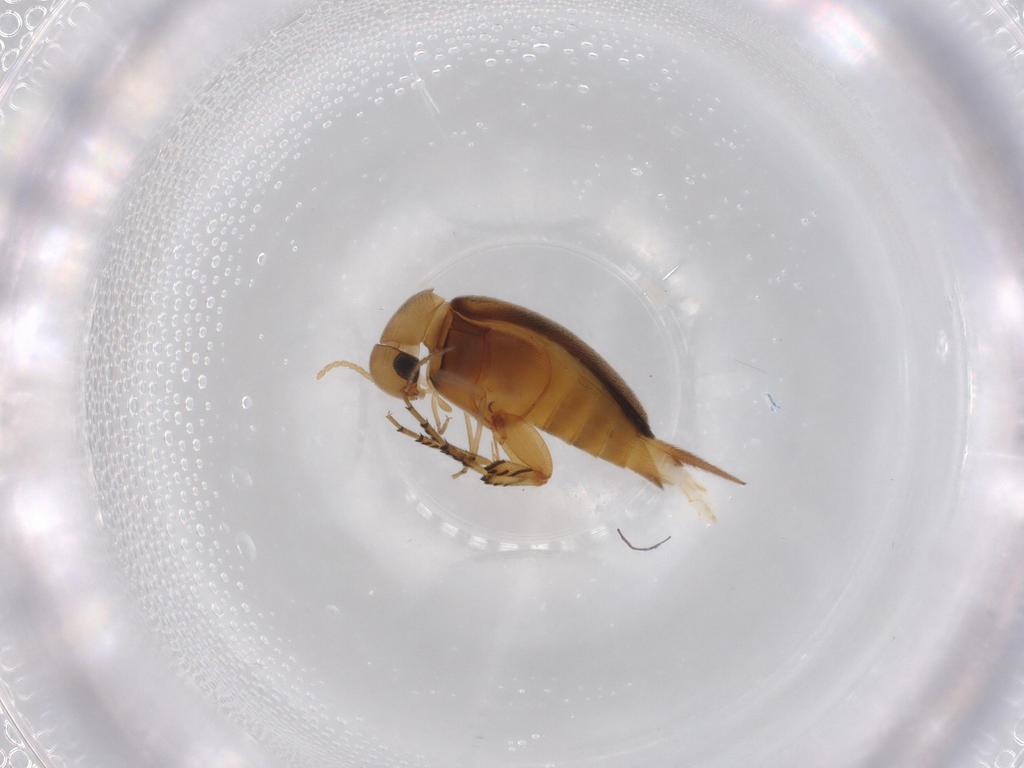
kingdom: Animalia
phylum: Arthropoda
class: Insecta
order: Coleoptera
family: Mordellidae
